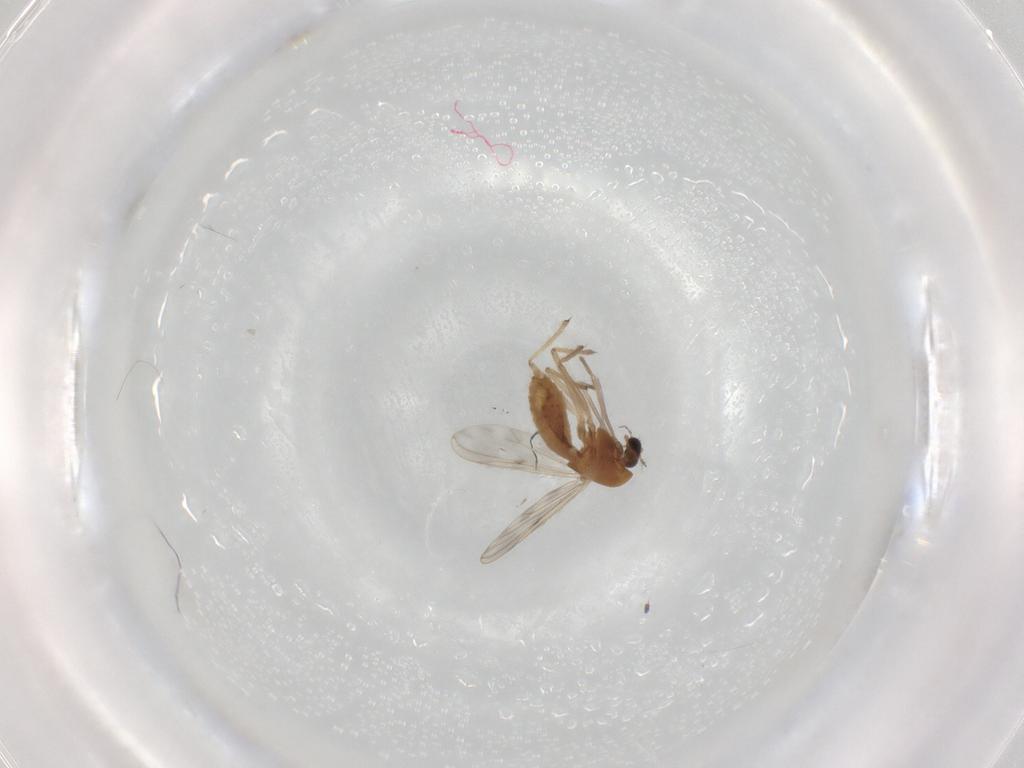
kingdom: Animalia
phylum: Arthropoda
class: Insecta
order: Diptera
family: Chironomidae
